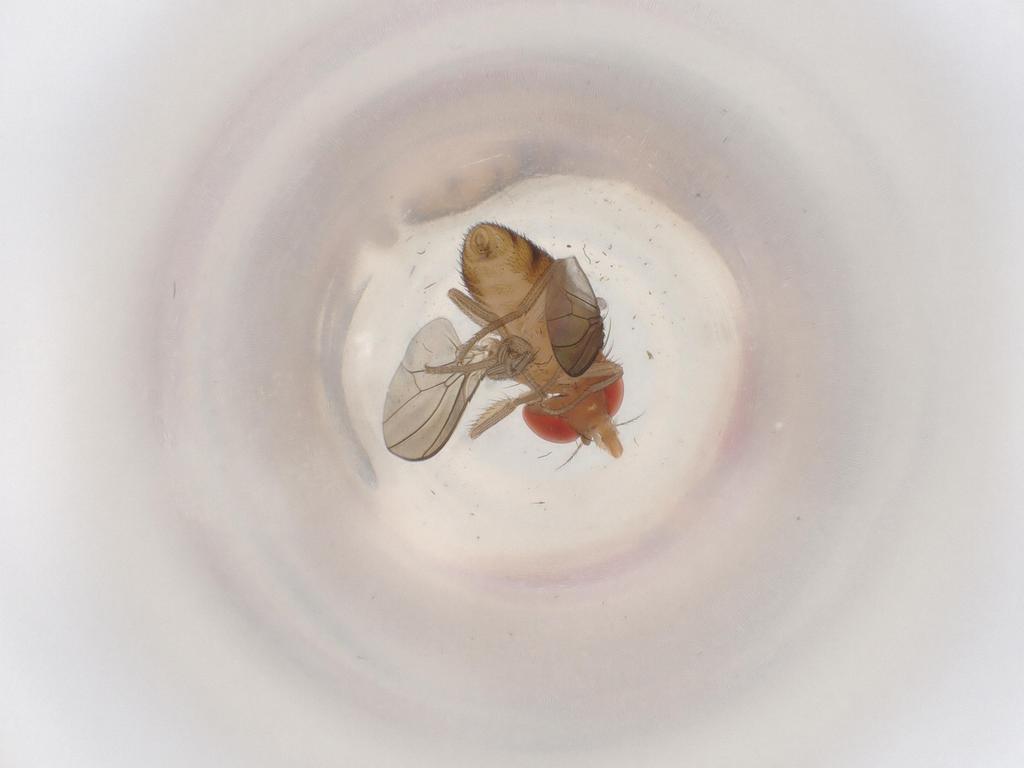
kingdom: Animalia
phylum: Arthropoda
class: Insecta
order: Diptera
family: Drosophilidae
